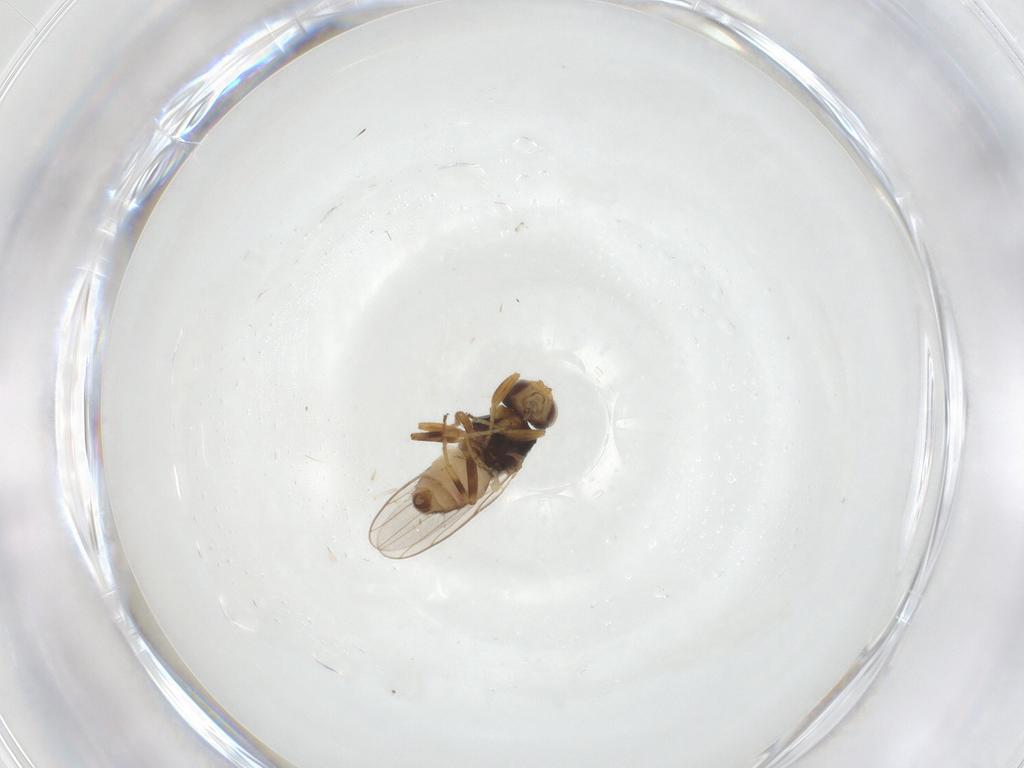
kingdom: Animalia
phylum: Arthropoda
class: Insecta
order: Diptera
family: Chloropidae
